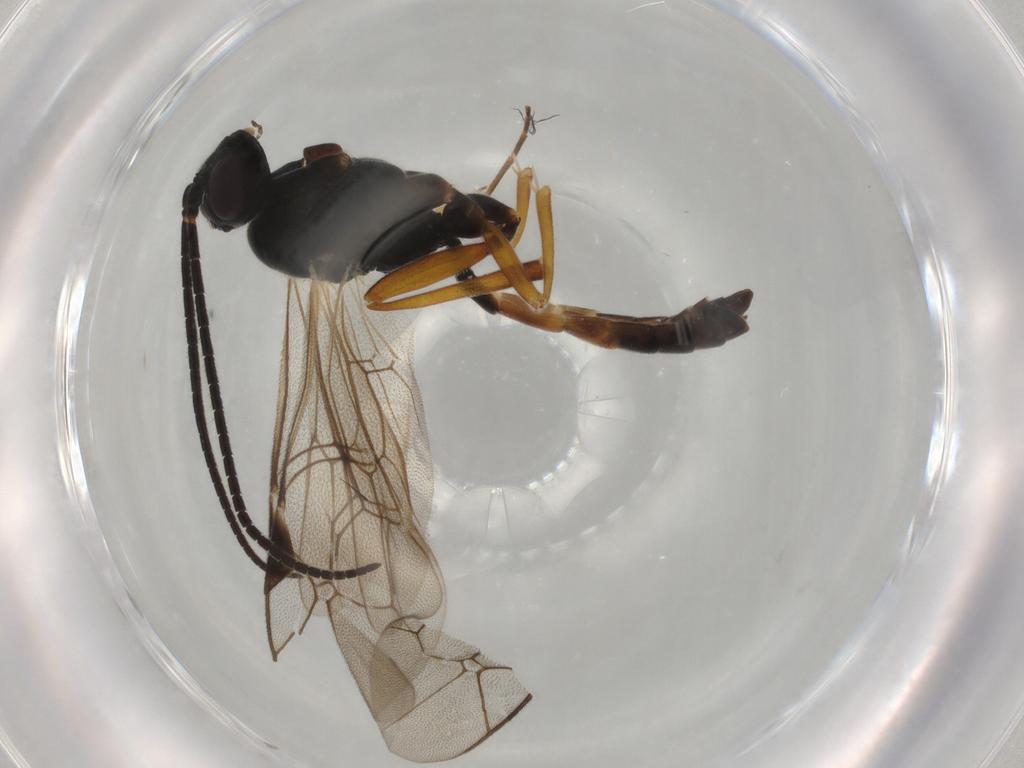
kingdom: Animalia
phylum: Arthropoda
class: Insecta
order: Hymenoptera
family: Formicidae
